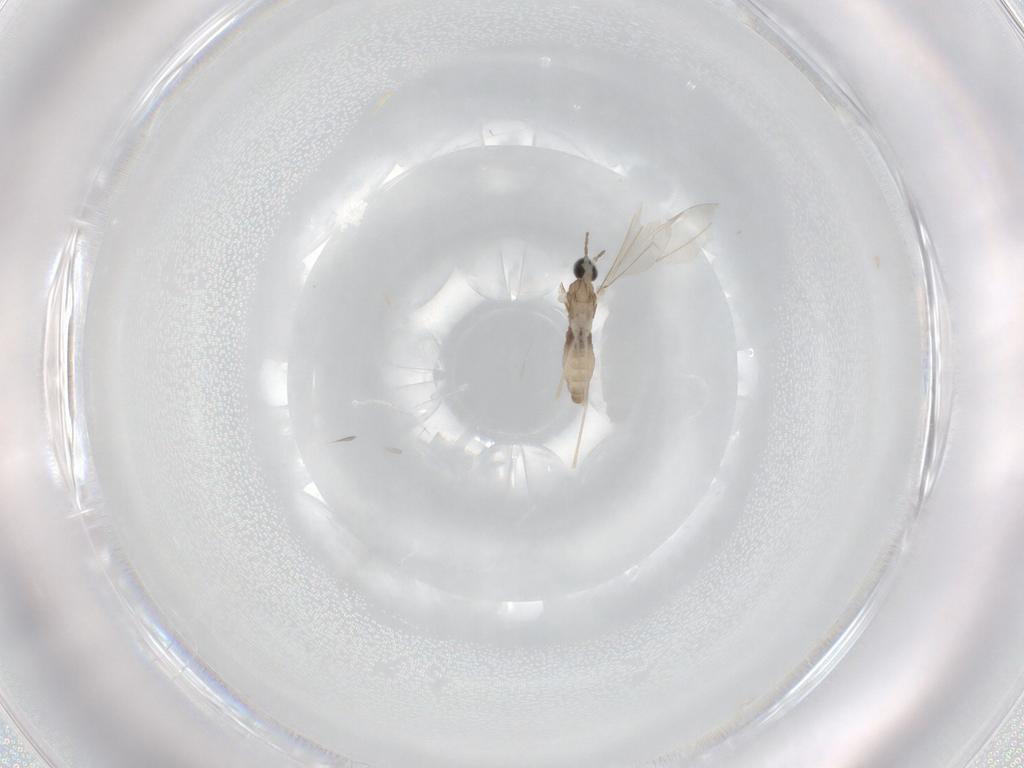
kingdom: Animalia
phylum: Arthropoda
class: Insecta
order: Diptera
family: Cecidomyiidae
